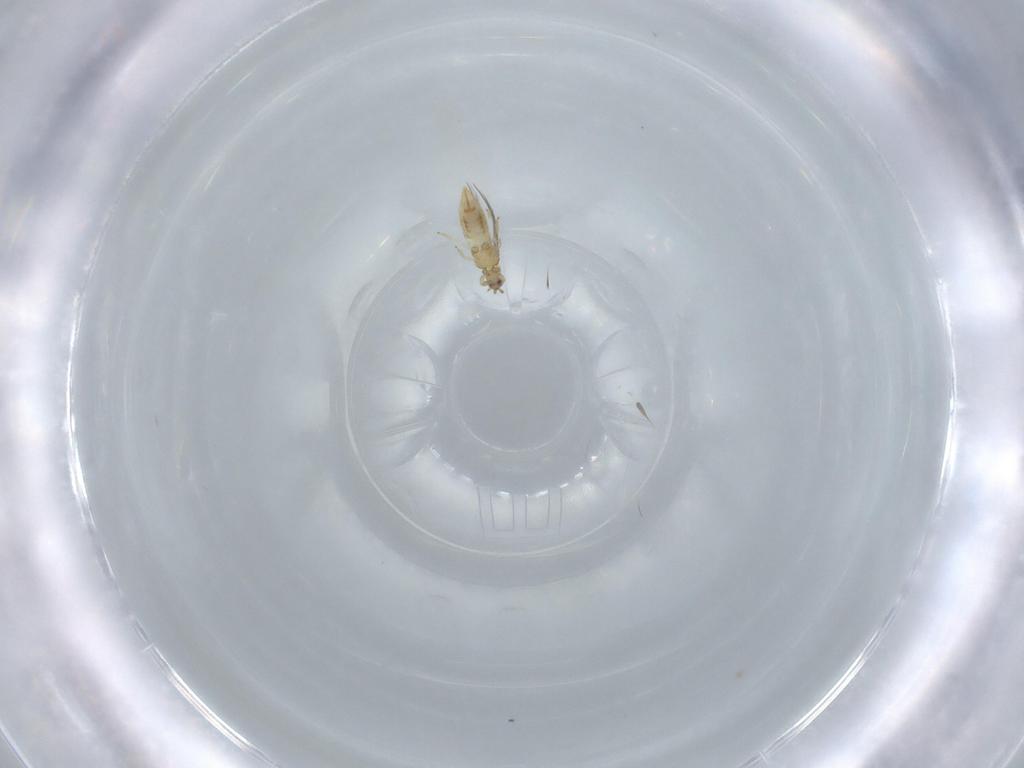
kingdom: Animalia
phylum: Arthropoda
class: Insecta
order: Thysanoptera
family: Thripidae
